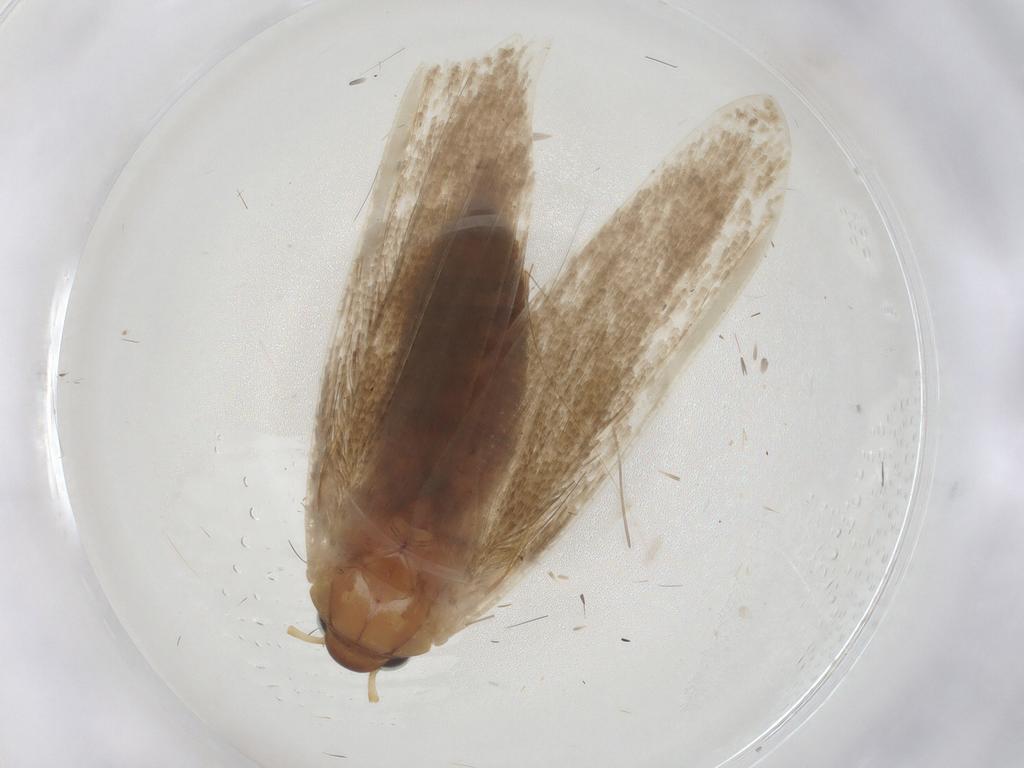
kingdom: Animalia
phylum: Arthropoda
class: Insecta
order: Lepidoptera
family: Blastobasidae
